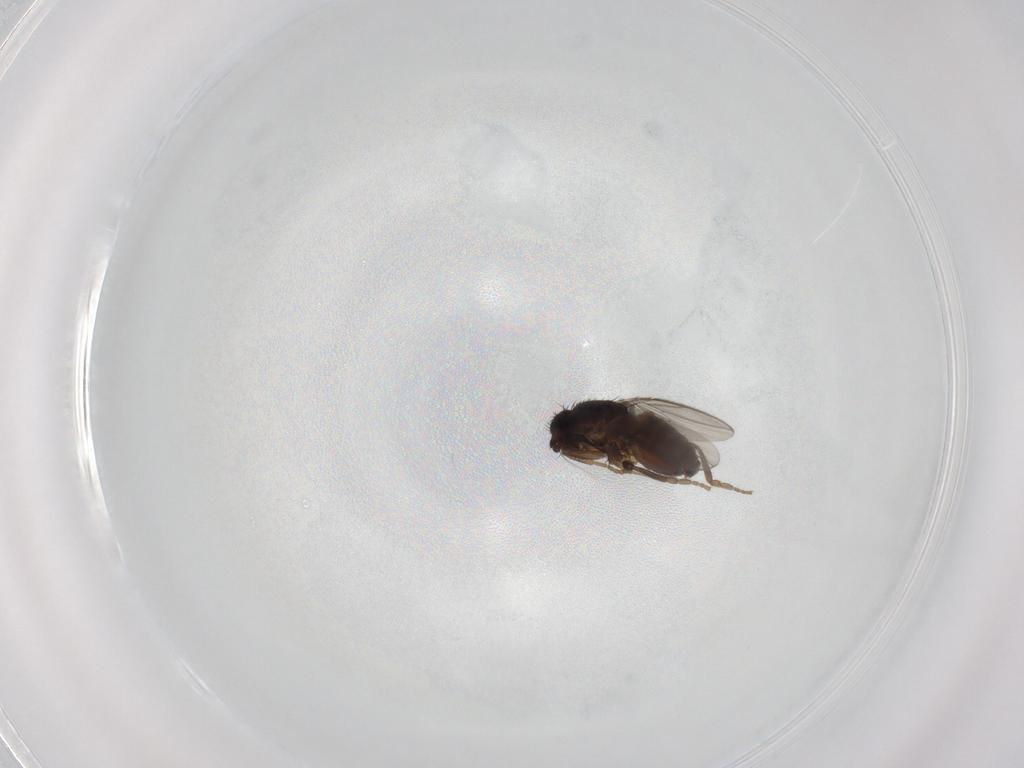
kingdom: Animalia
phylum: Arthropoda
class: Insecta
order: Diptera
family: Sphaeroceridae
